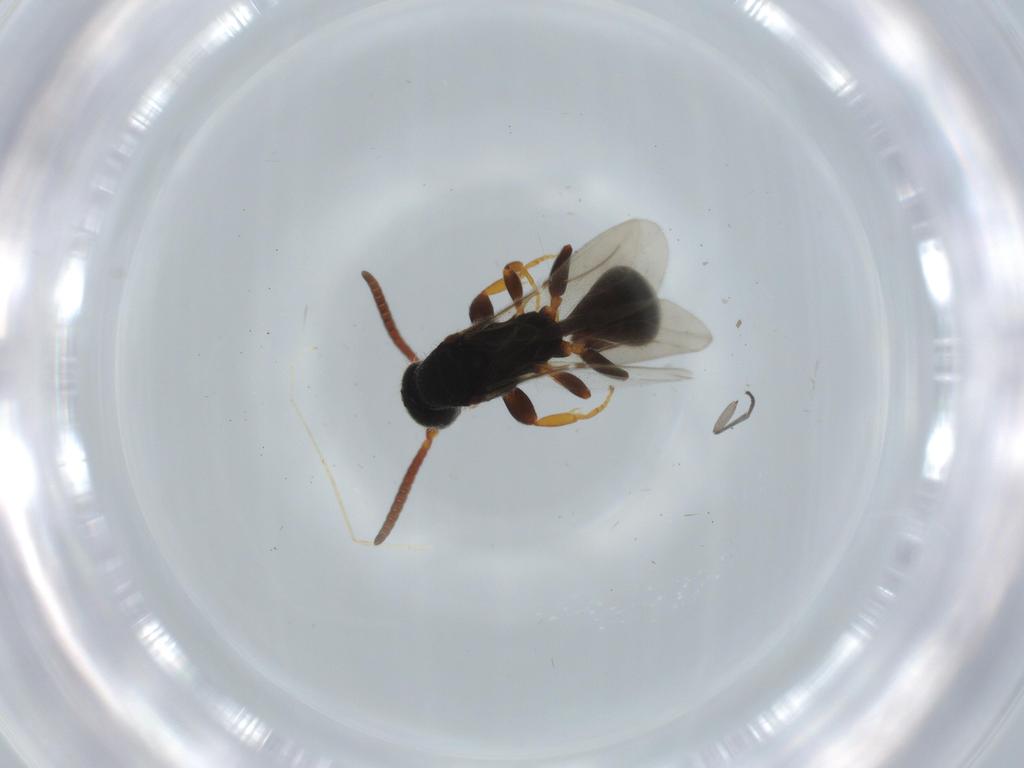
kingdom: Animalia
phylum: Arthropoda
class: Insecta
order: Hymenoptera
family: Bethylidae
